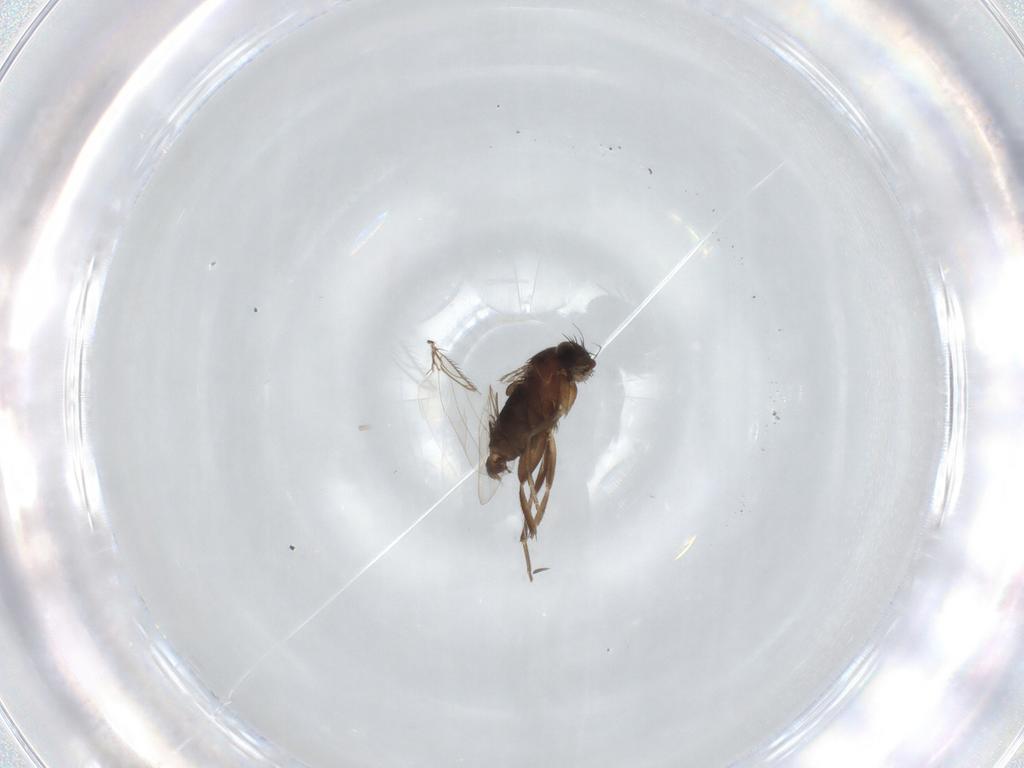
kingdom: Animalia
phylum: Arthropoda
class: Insecta
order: Diptera
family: Phoridae
